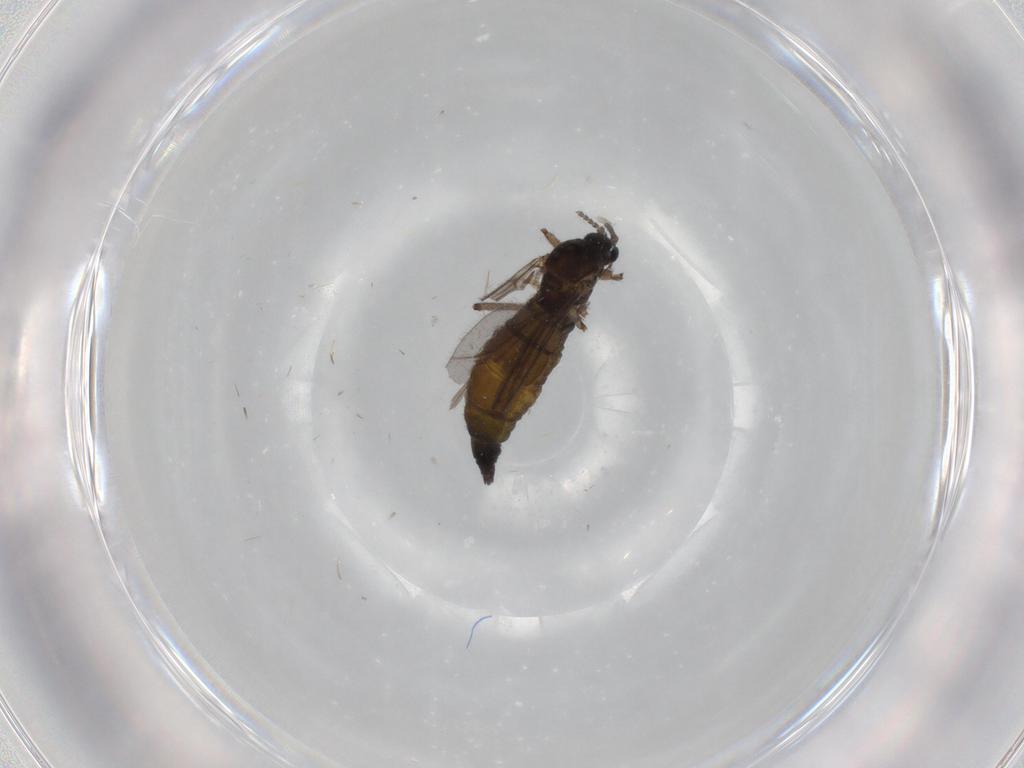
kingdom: Animalia
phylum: Arthropoda
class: Insecta
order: Diptera
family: Sciaridae
